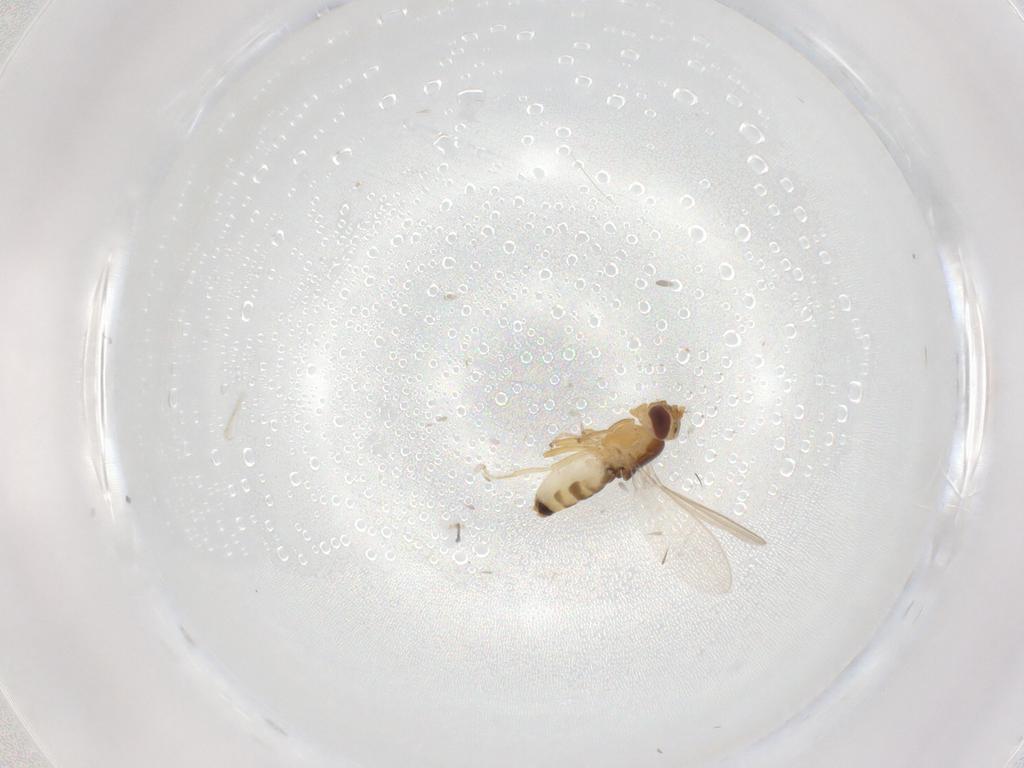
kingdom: Animalia
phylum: Arthropoda
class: Insecta
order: Diptera
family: Periscelididae
